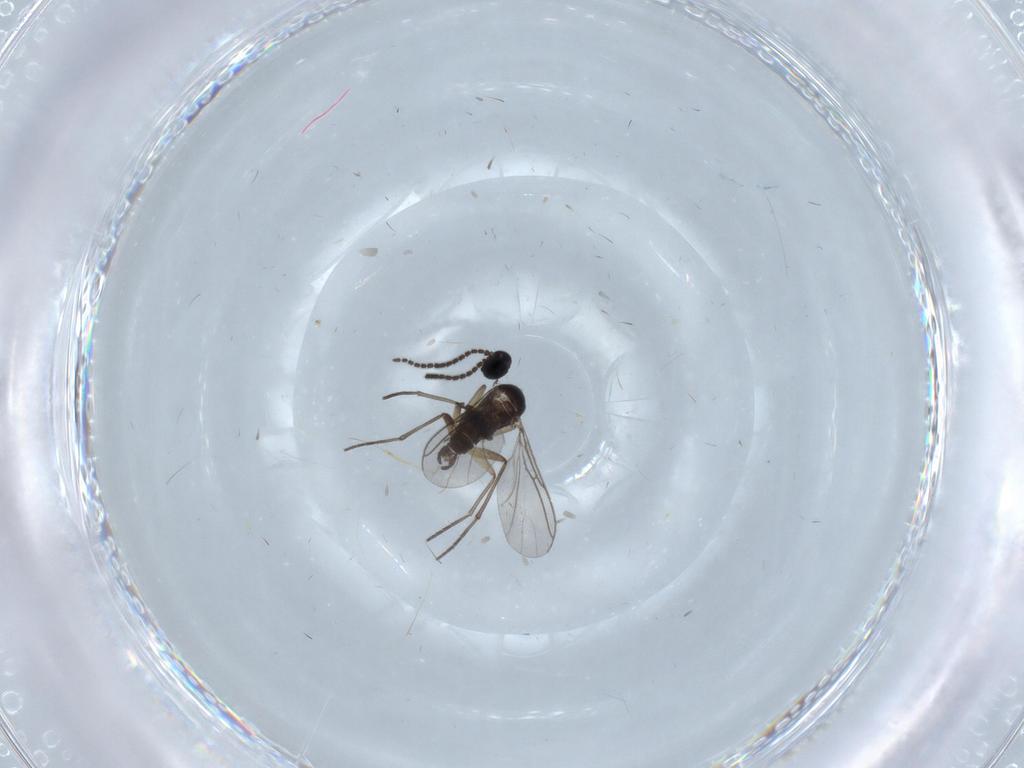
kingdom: Animalia
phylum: Arthropoda
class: Insecta
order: Diptera
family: Sciaridae
